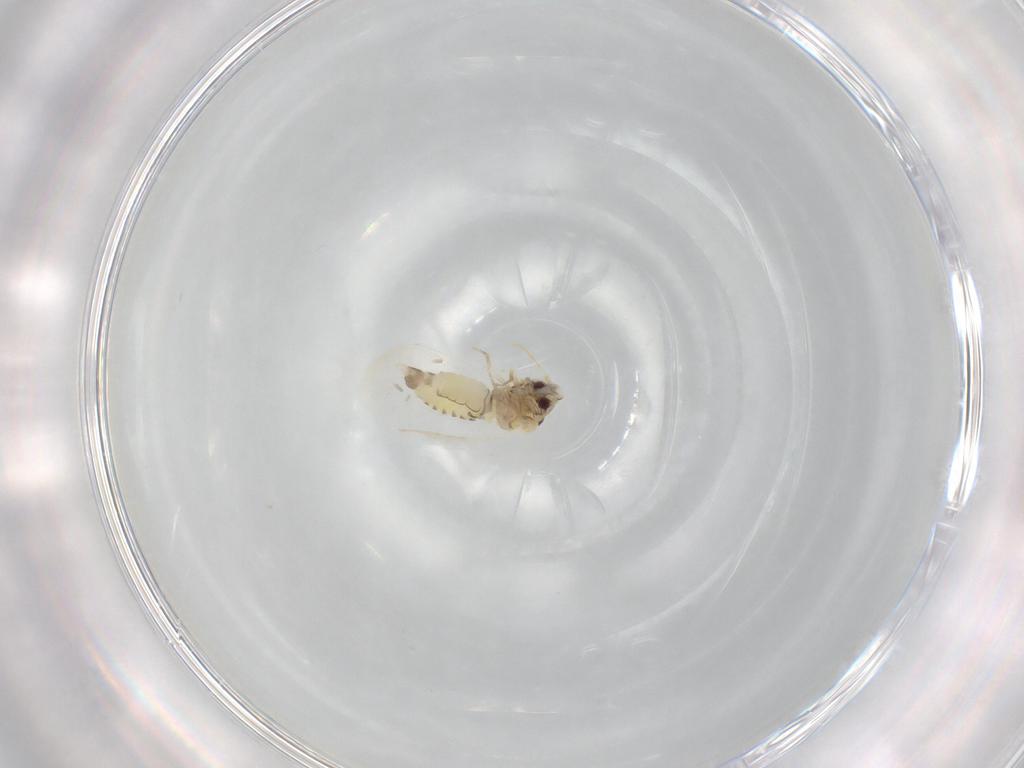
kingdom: Animalia
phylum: Arthropoda
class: Insecta
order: Hemiptera
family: Aleyrodidae
